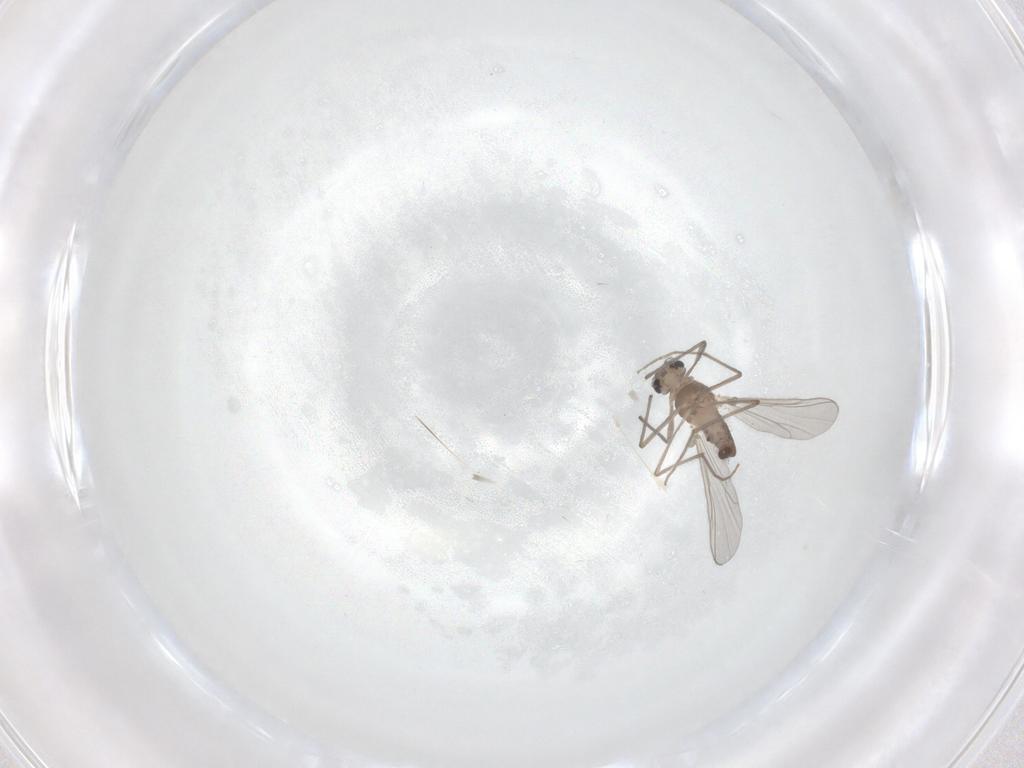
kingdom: Animalia
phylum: Arthropoda
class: Insecta
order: Diptera
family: Chironomidae
